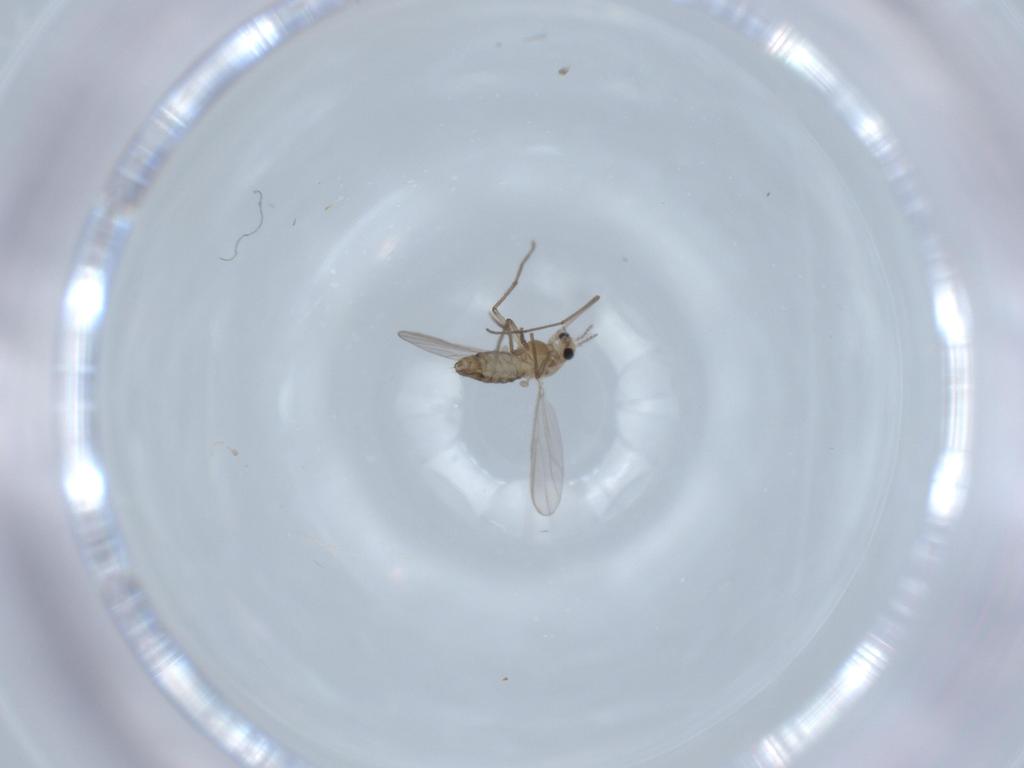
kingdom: Animalia
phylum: Arthropoda
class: Insecta
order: Diptera
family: Chironomidae
